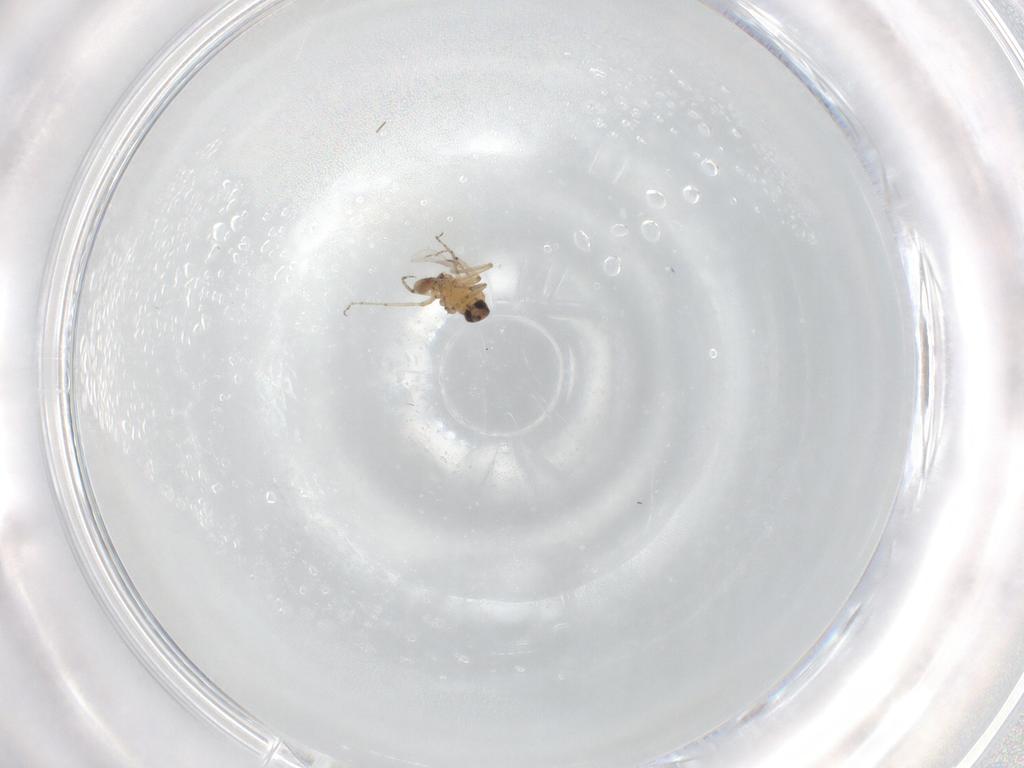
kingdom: Animalia
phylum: Arthropoda
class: Insecta
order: Diptera
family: Ceratopogonidae
